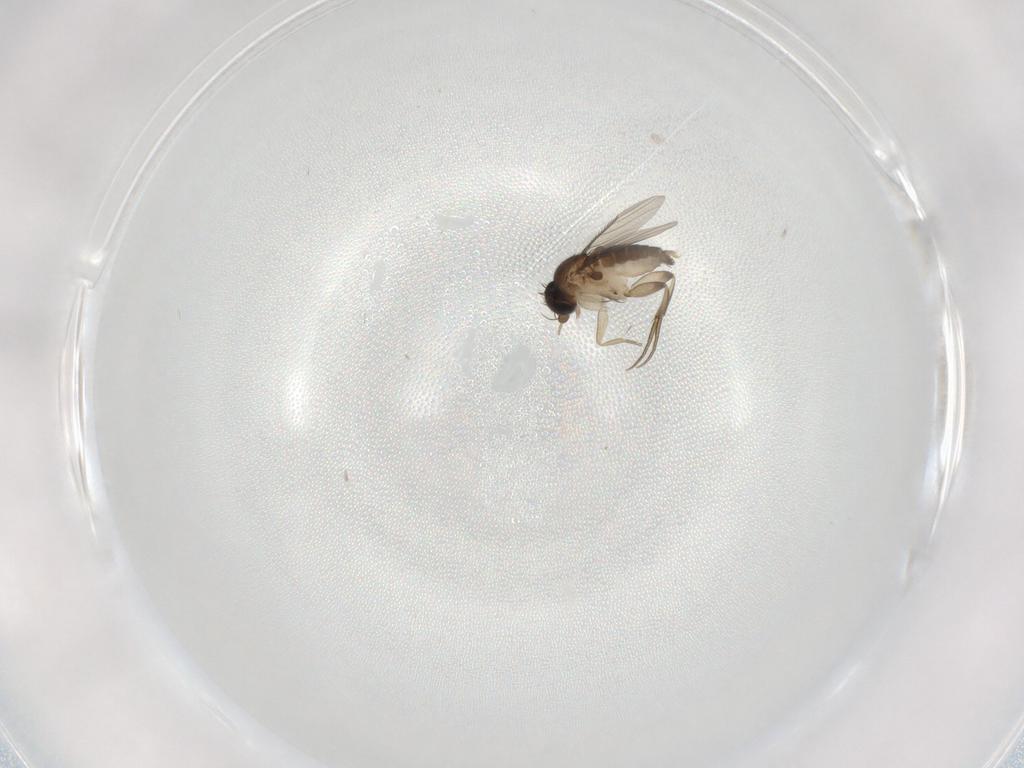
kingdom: Animalia
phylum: Arthropoda
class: Insecta
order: Diptera
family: Phoridae
